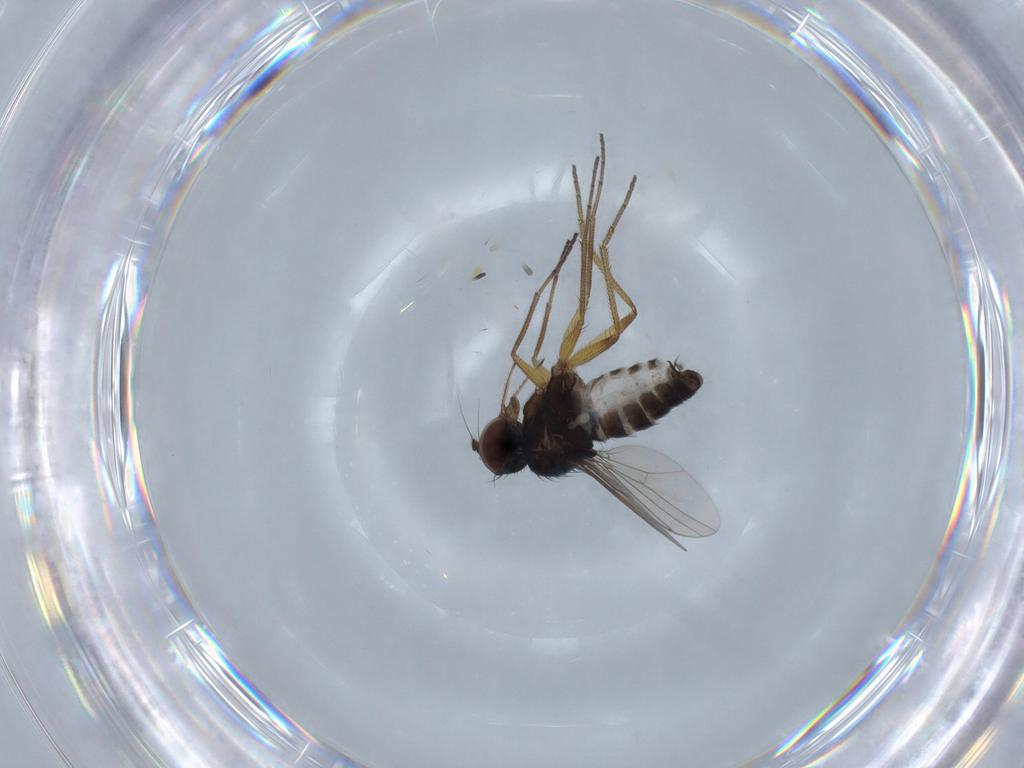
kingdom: Animalia
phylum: Arthropoda
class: Insecta
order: Diptera
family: Dolichopodidae
